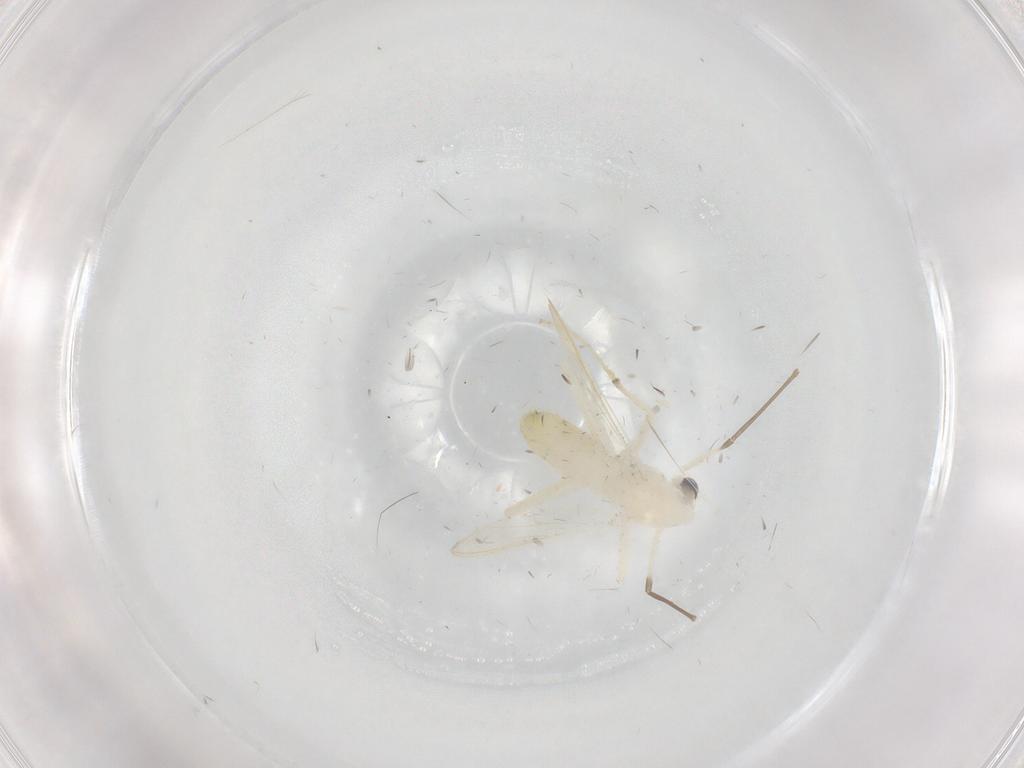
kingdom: Animalia
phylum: Arthropoda
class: Insecta
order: Diptera
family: Chironomidae
